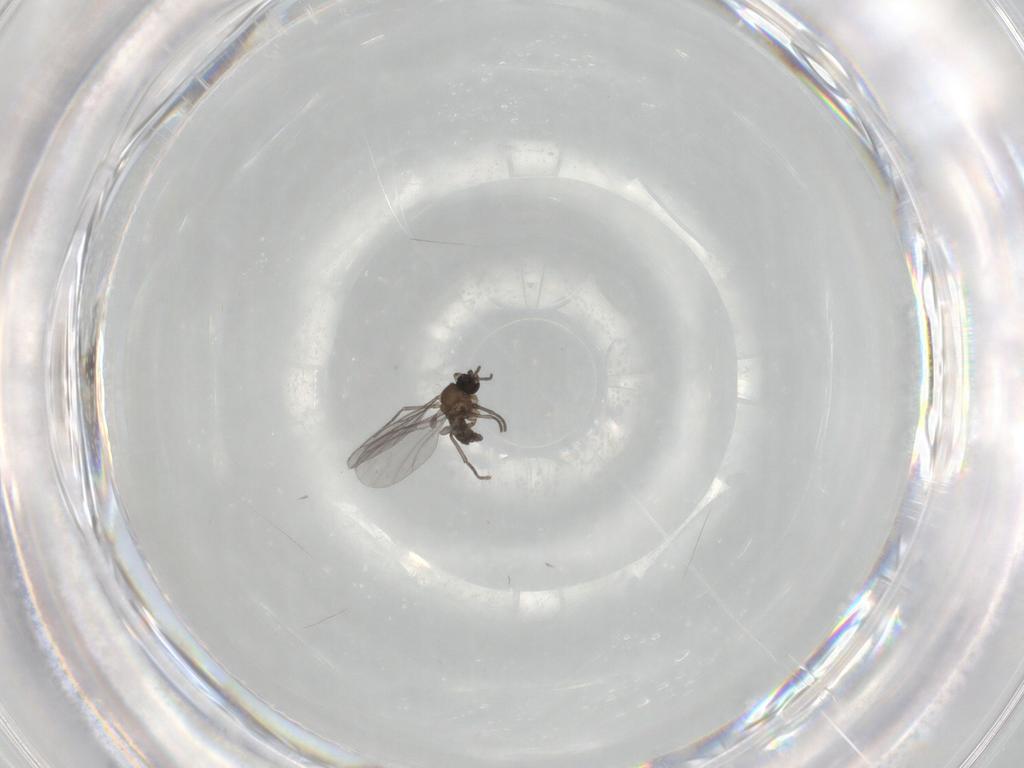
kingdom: Animalia
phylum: Arthropoda
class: Insecta
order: Diptera
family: Sciaridae
